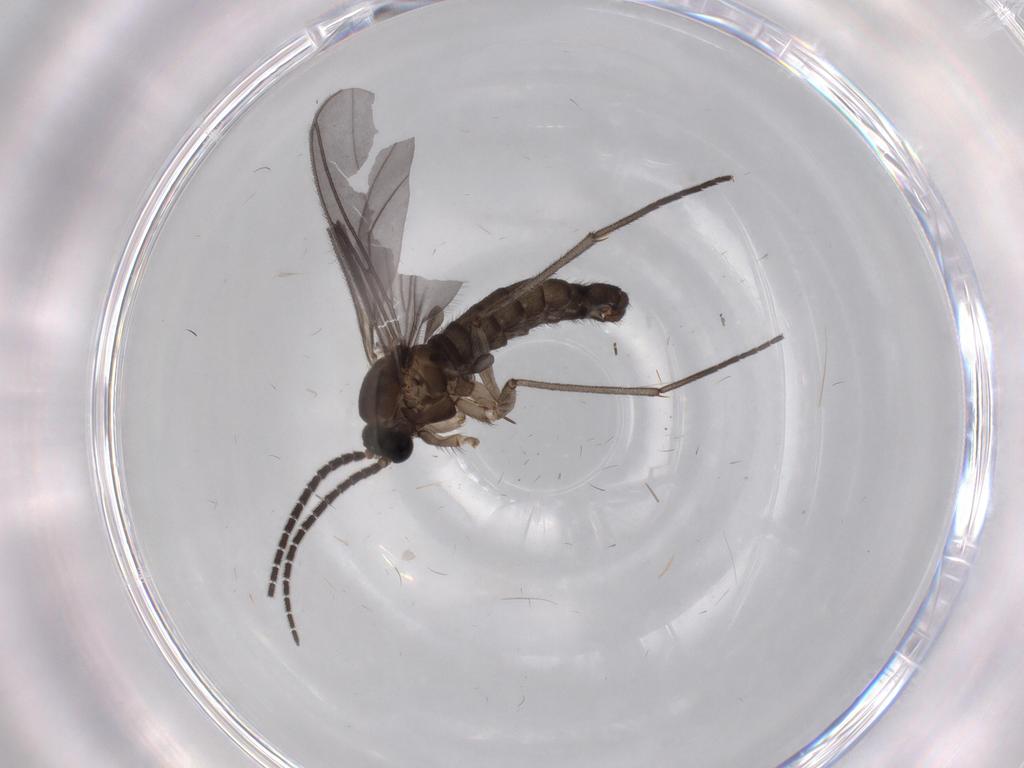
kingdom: Animalia
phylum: Arthropoda
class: Insecta
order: Diptera
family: Sciaridae
